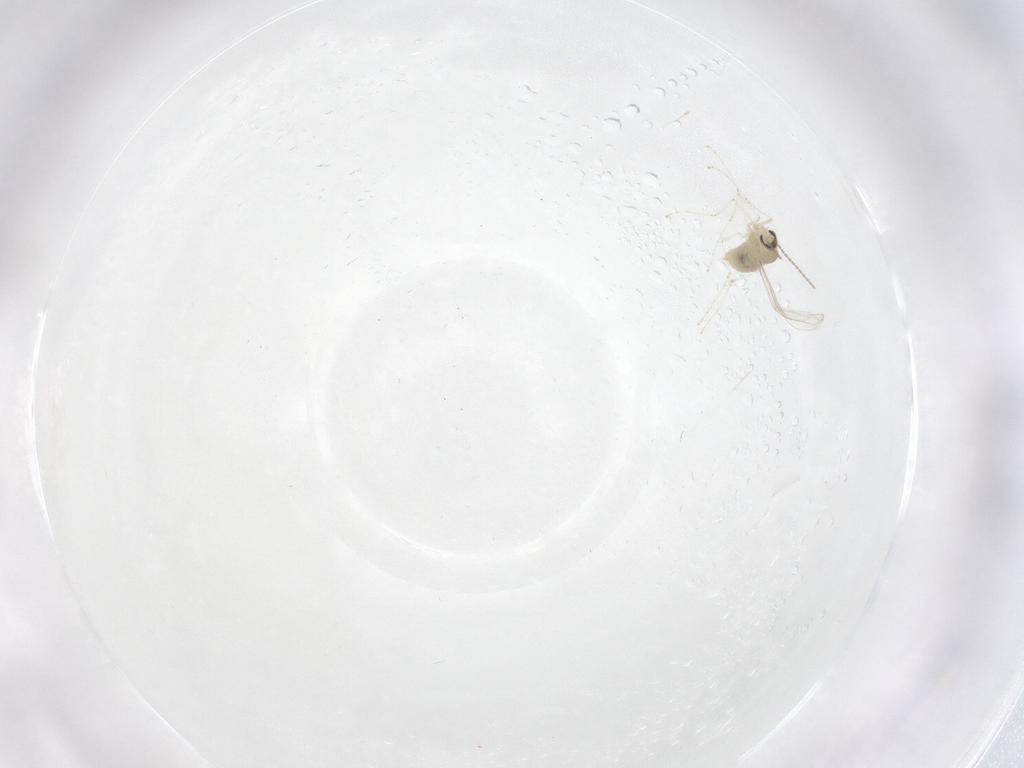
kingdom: Animalia
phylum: Arthropoda
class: Insecta
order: Diptera
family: Cecidomyiidae
